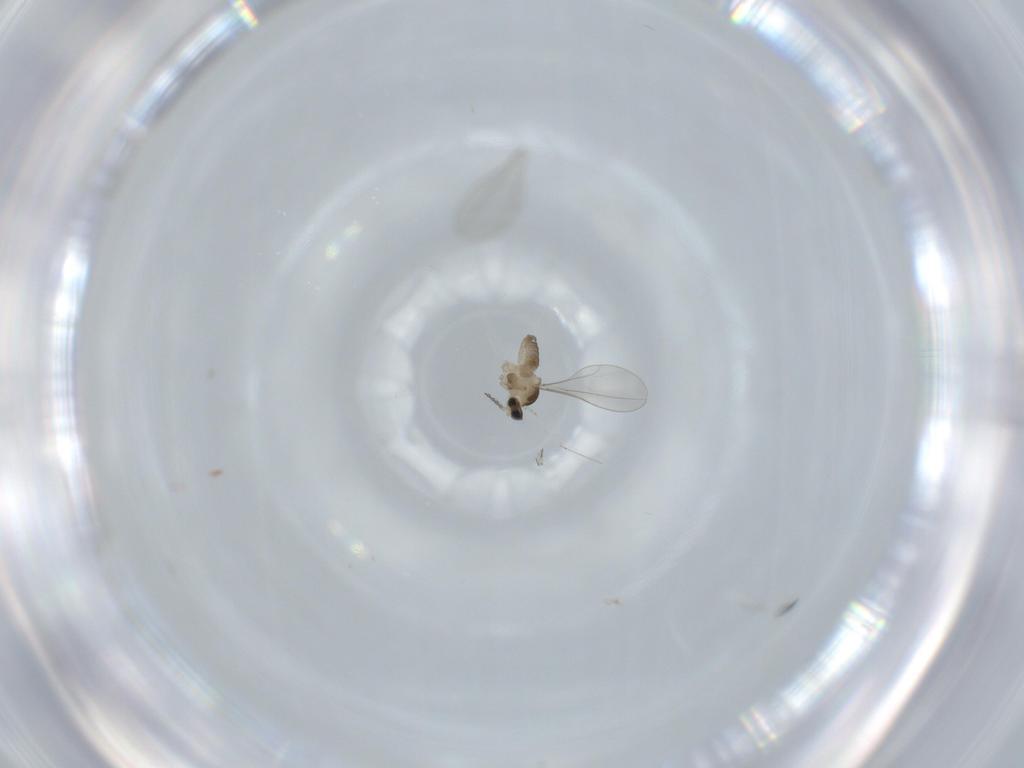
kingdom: Animalia
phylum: Arthropoda
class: Insecta
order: Diptera
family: Cecidomyiidae
